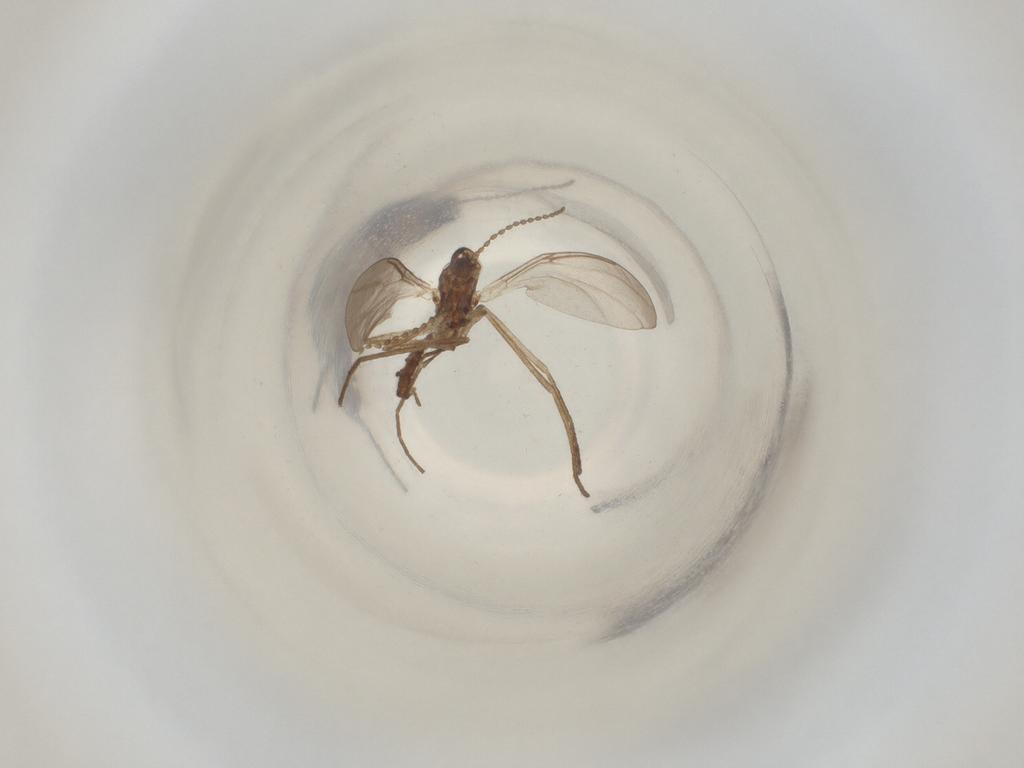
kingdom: Animalia
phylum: Arthropoda
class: Insecta
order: Diptera
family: Cecidomyiidae
